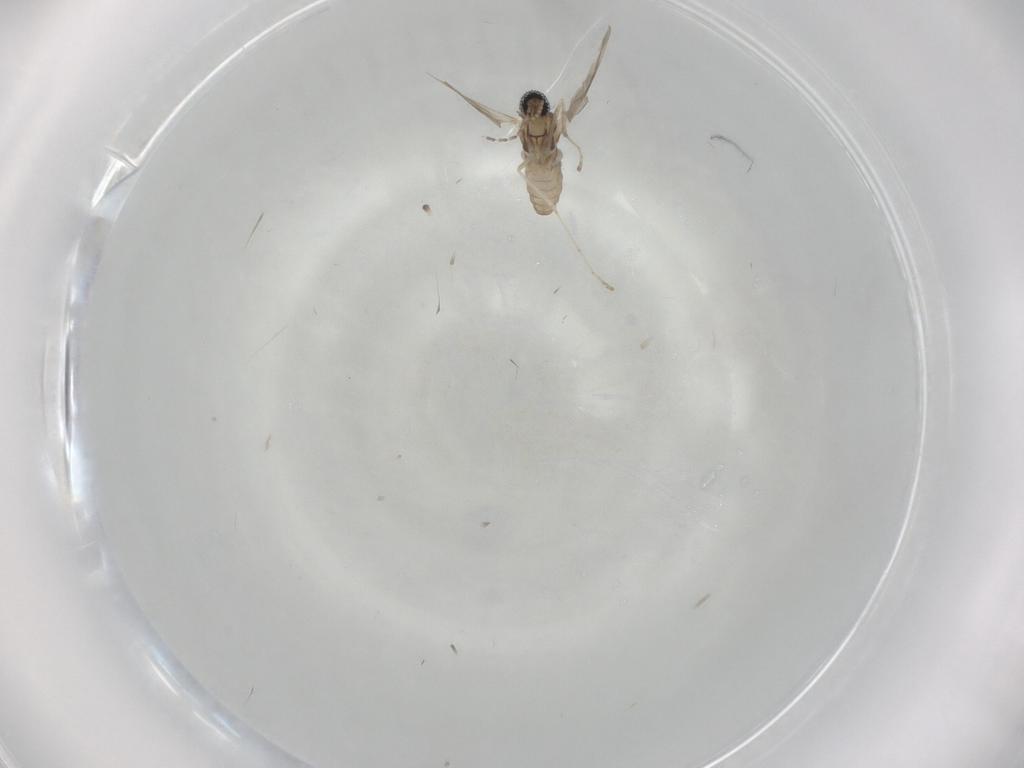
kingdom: Animalia
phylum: Arthropoda
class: Insecta
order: Diptera
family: Cecidomyiidae
